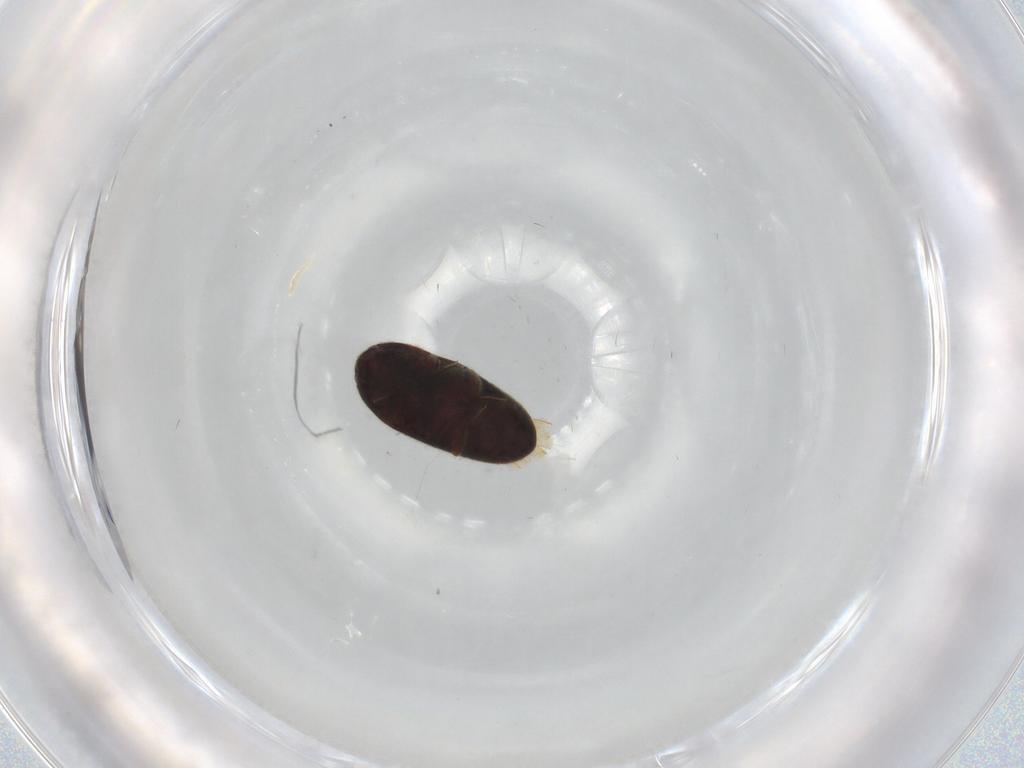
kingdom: Animalia
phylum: Arthropoda
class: Insecta
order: Coleoptera
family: Throscidae
